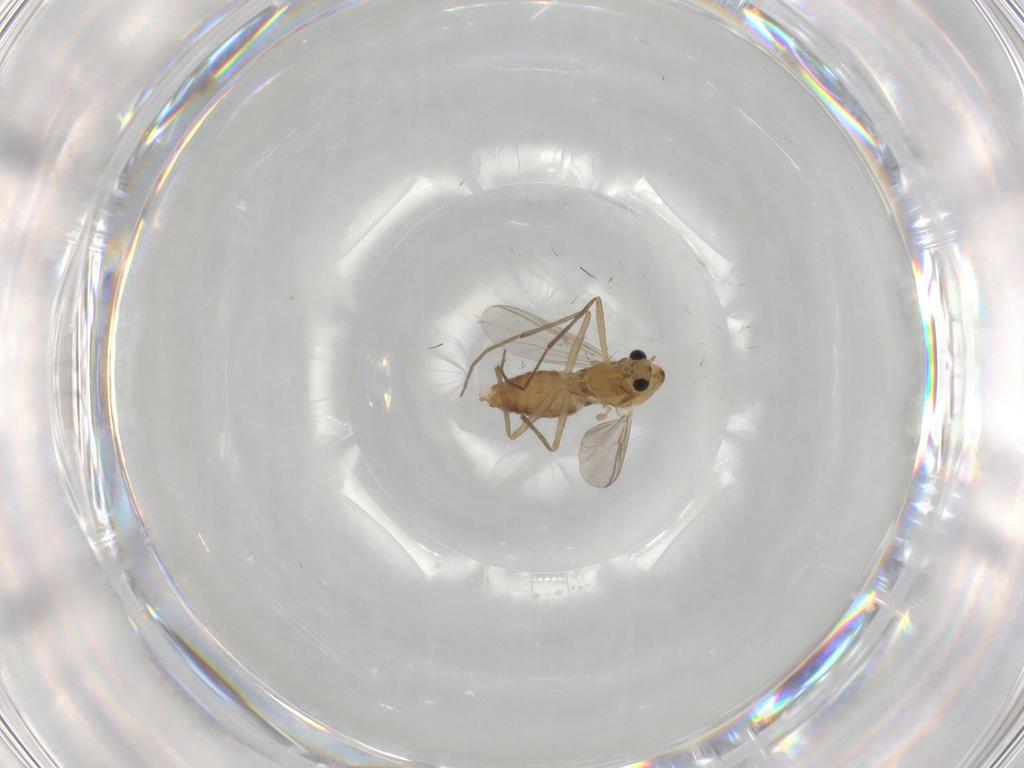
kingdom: Animalia
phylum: Arthropoda
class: Insecta
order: Diptera
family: Chironomidae
